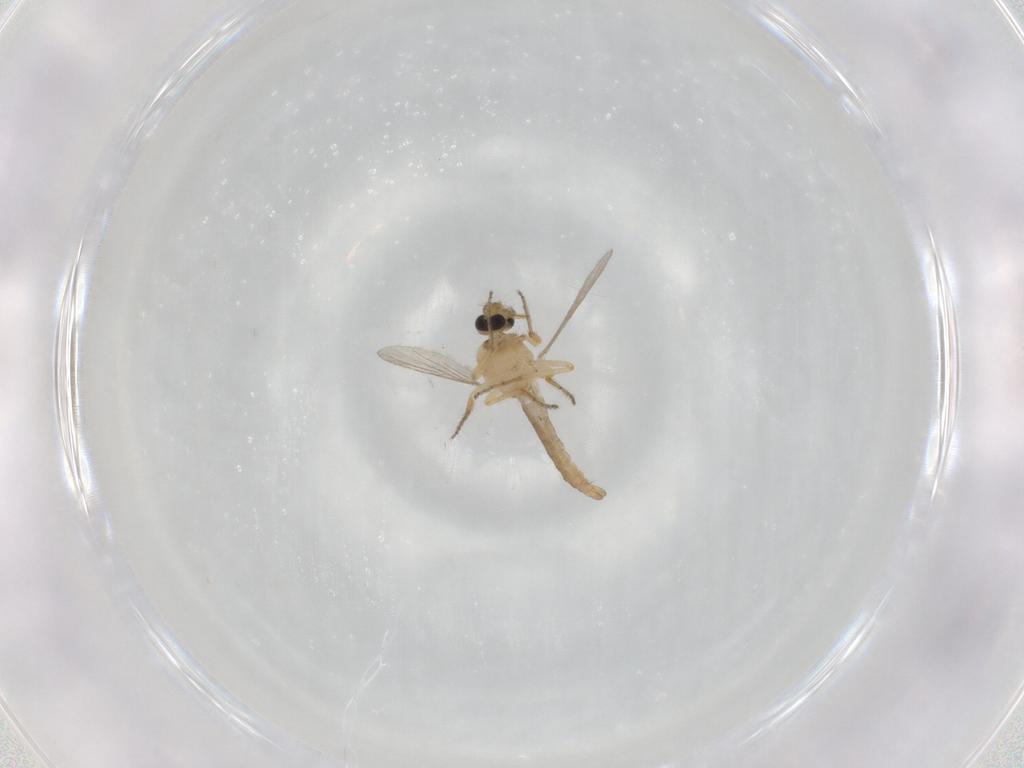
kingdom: Animalia
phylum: Arthropoda
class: Insecta
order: Diptera
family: Ceratopogonidae
